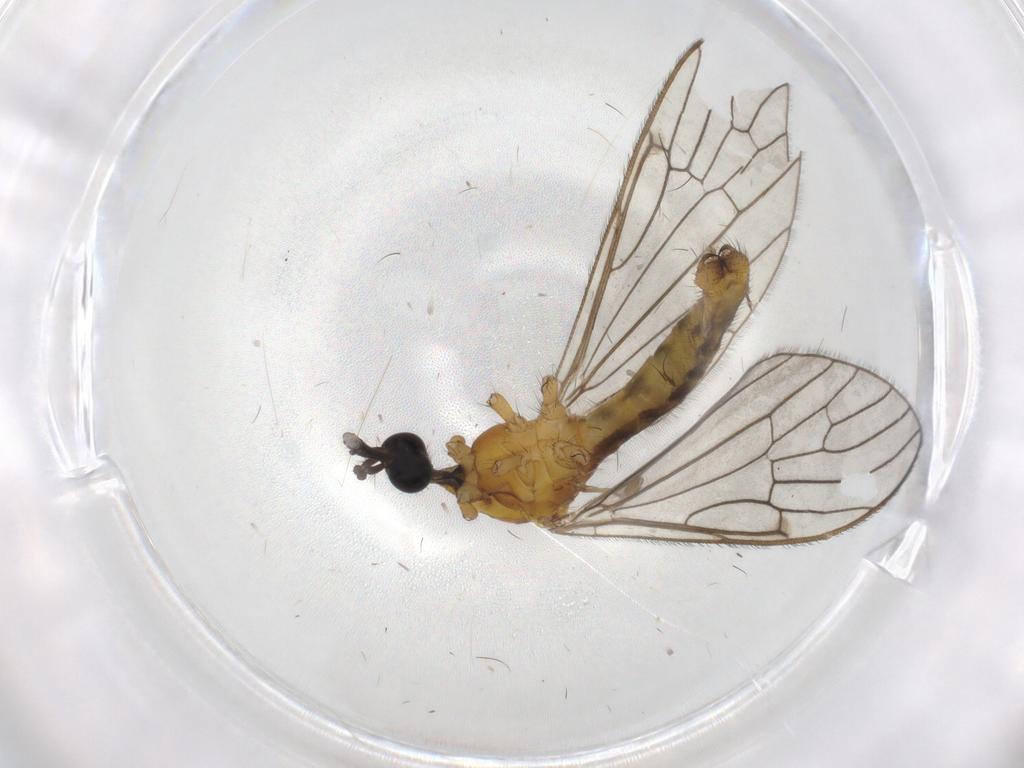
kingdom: Animalia
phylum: Arthropoda
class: Insecta
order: Diptera
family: Limoniidae
